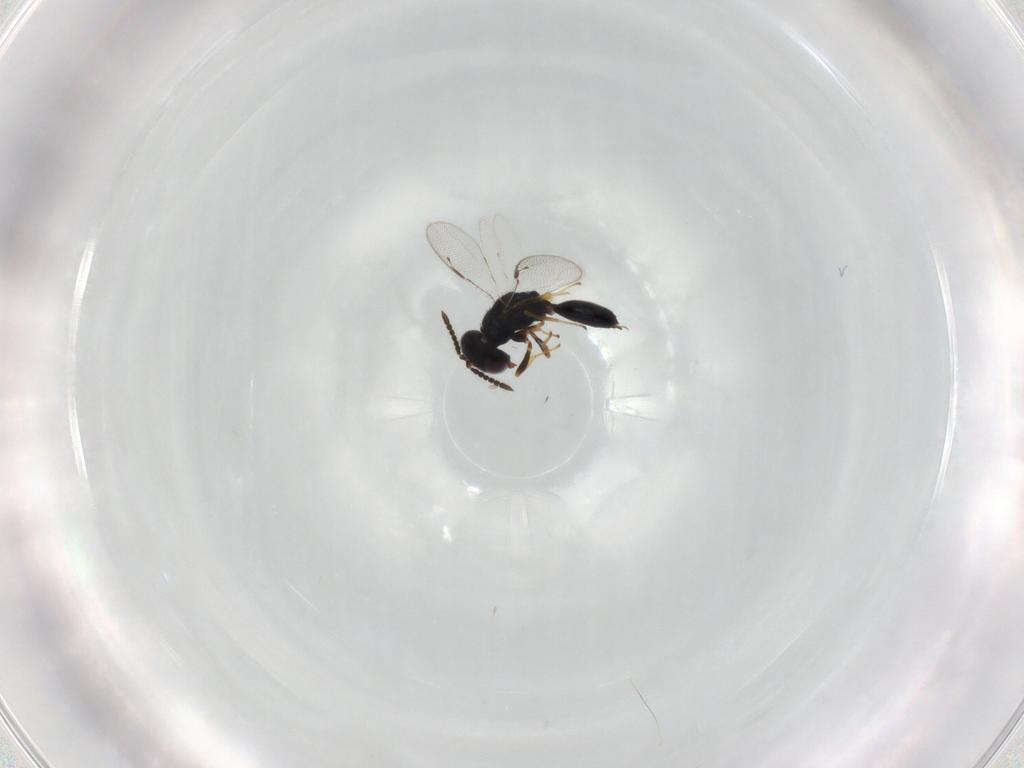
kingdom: Animalia
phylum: Arthropoda
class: Insecta
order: Hymenoptera
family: Pteromalidae
